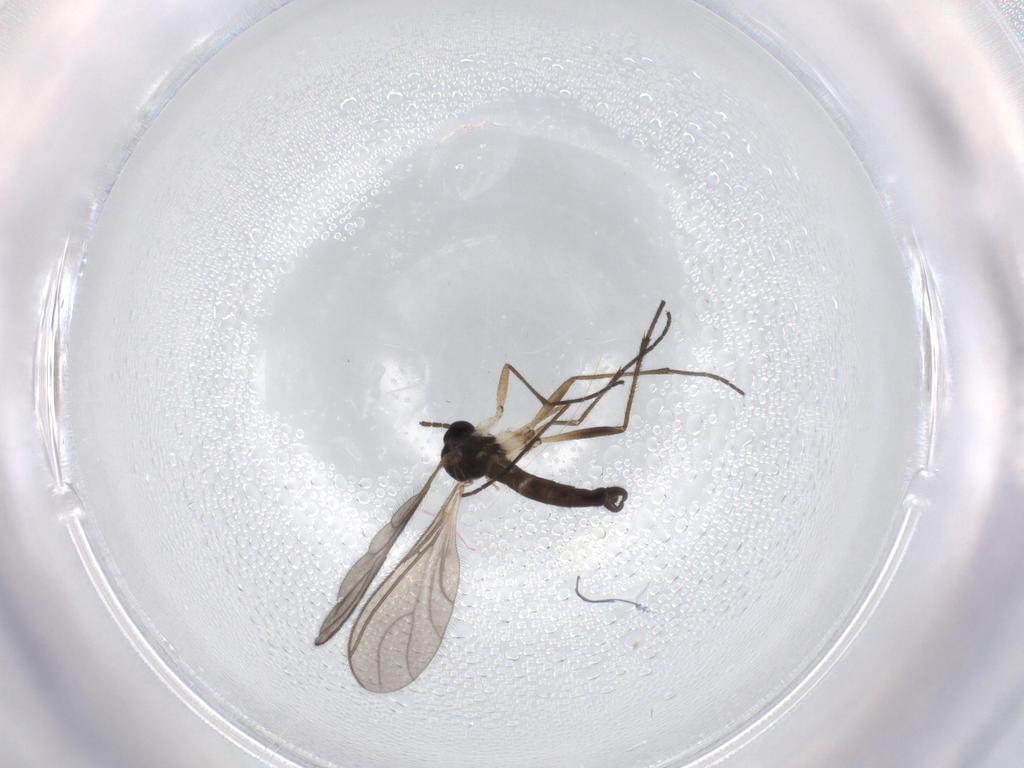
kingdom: Animalia
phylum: Arthropoda
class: Insecta
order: Diptera
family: Sciaridae
